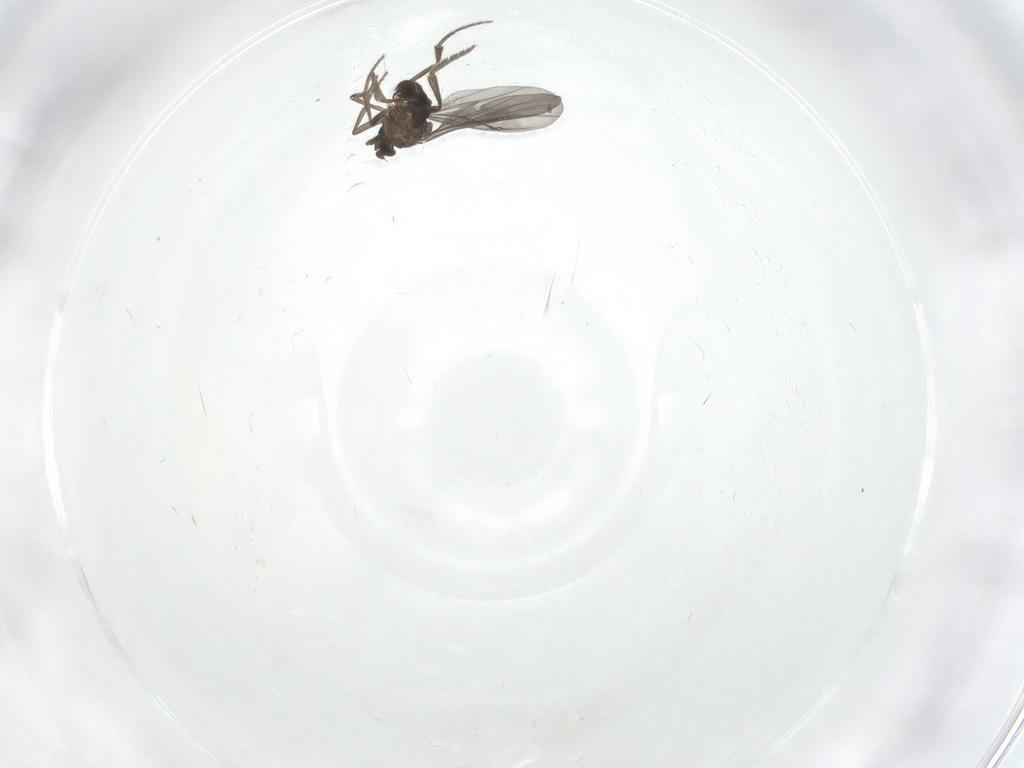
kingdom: Animalia
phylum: Arthropoda
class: Insecta
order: Diptera
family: Phoridae
